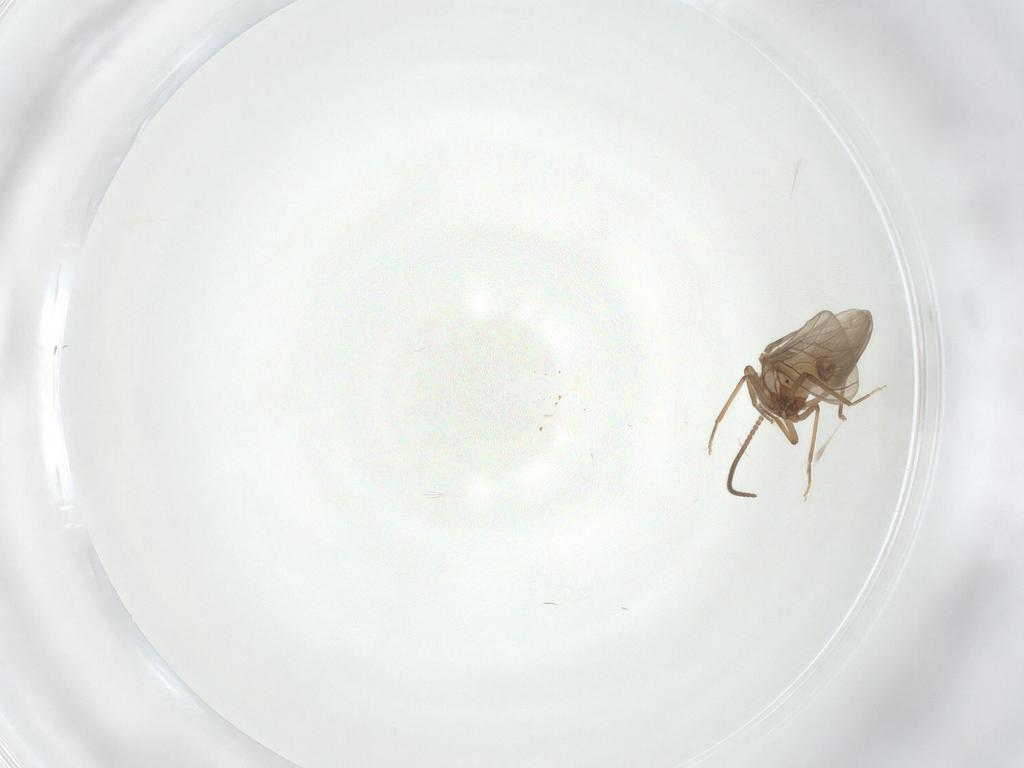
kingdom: Animalia
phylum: Arthropoda
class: Insecta
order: Neuroptera
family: Coniopterygidae
